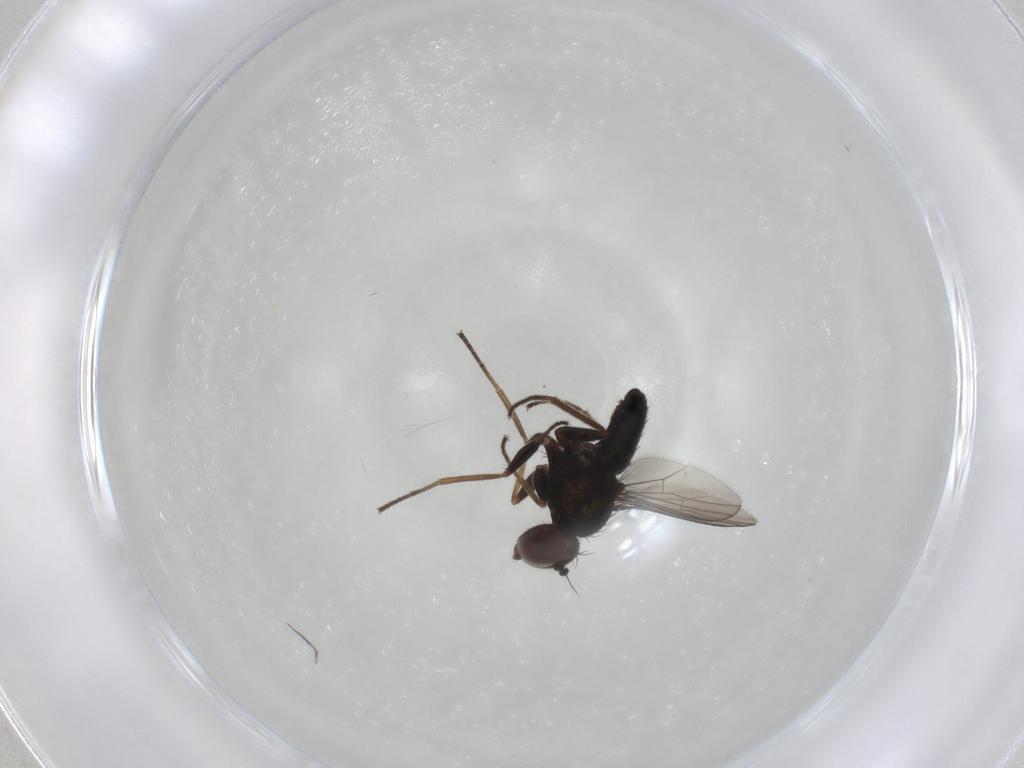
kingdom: Animalia
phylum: Arthropoda
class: Insecta
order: Diptera
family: Dolichopodidae
